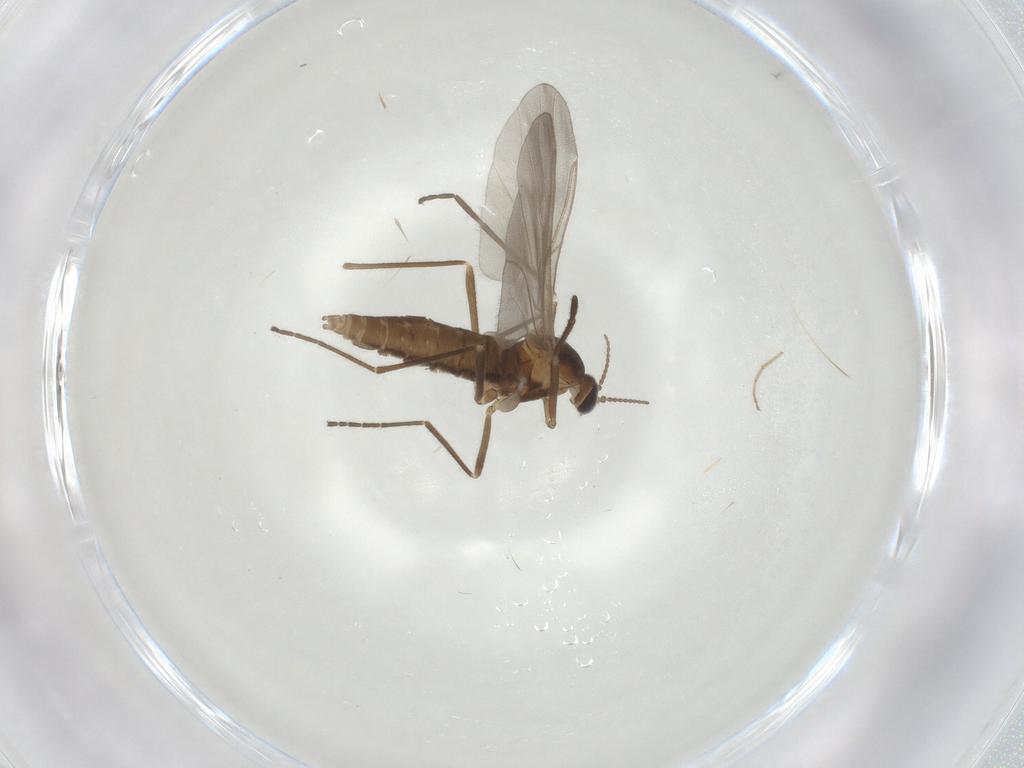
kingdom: Animalia
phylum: Arthropoda
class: Insecta
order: Diptera
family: Cecidomyiidae
